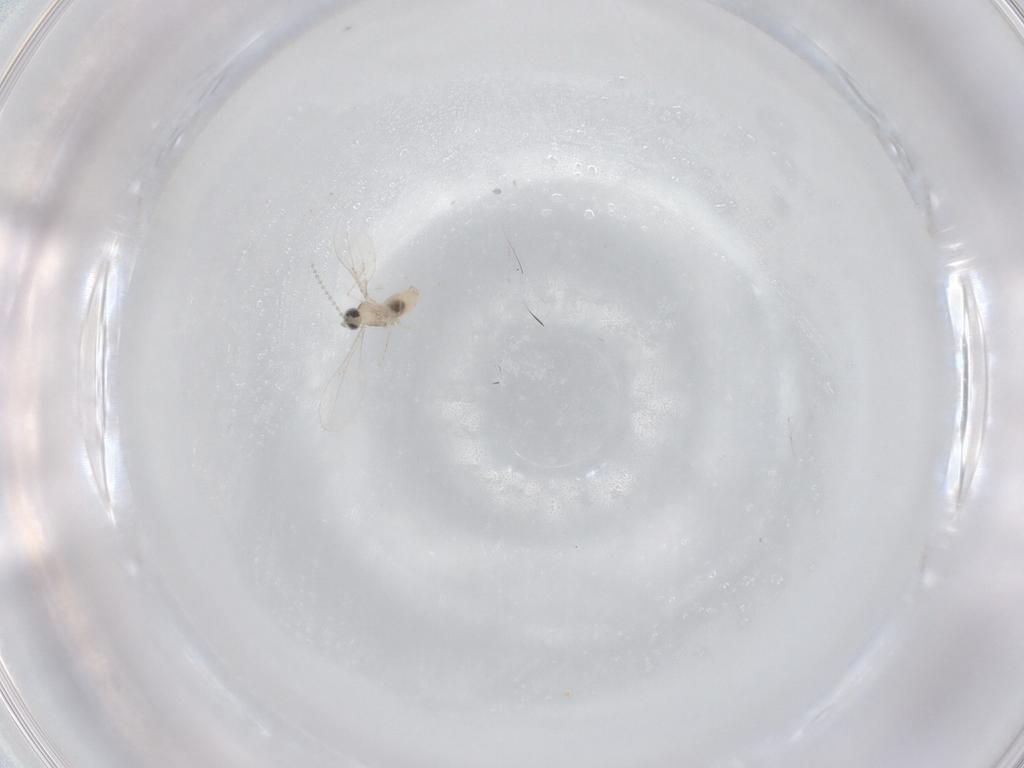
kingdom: Animalia
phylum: Arthropoda
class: Insecta
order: Diptera
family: Cecidomyiidae
